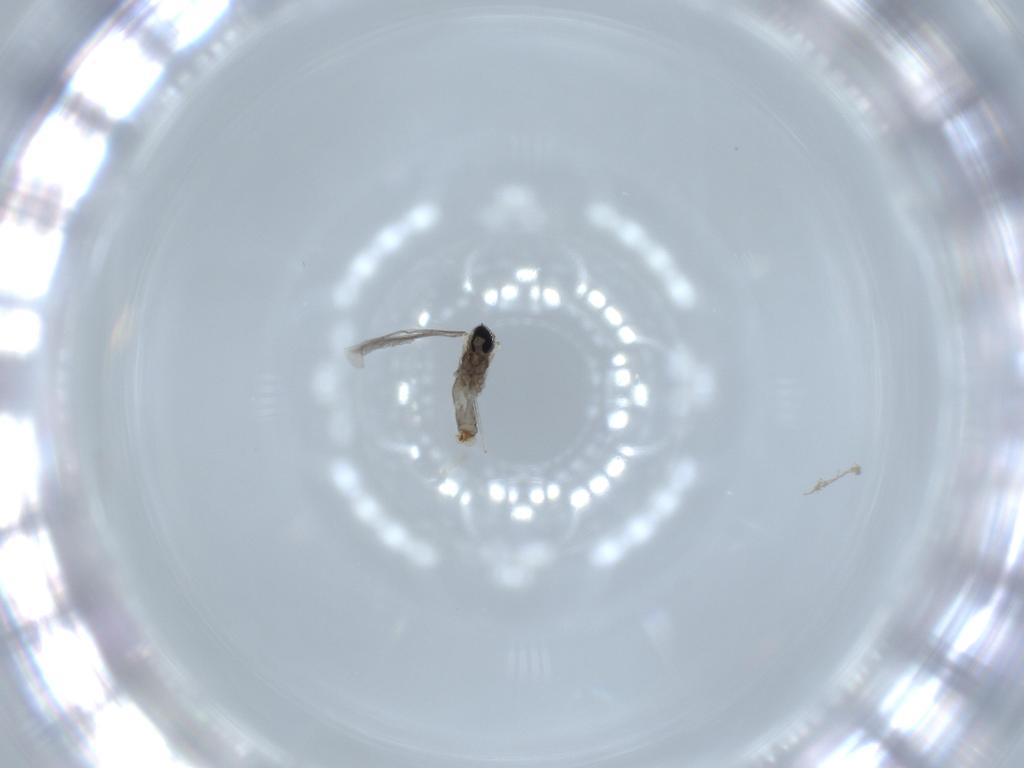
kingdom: Animalia
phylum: Arthropoda
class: Insecta
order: Diptera
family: Cecidomyiidae
